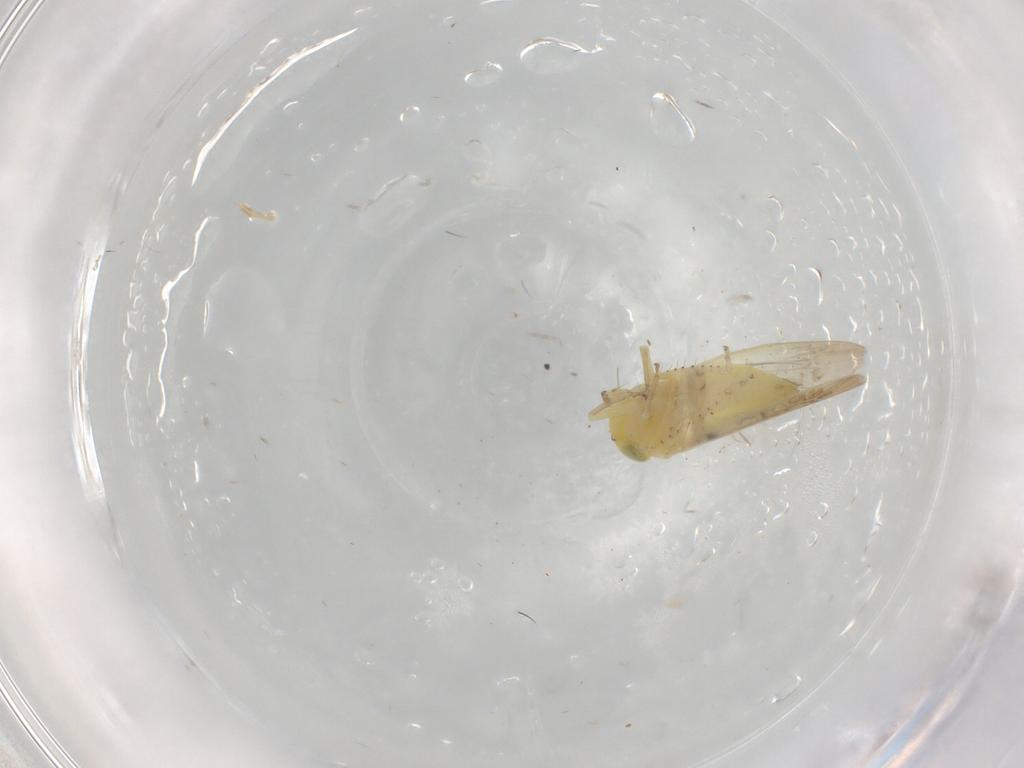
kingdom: Animalia
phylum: Arthropoda
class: Insecta
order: Hemiptera
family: Cicadellidae
